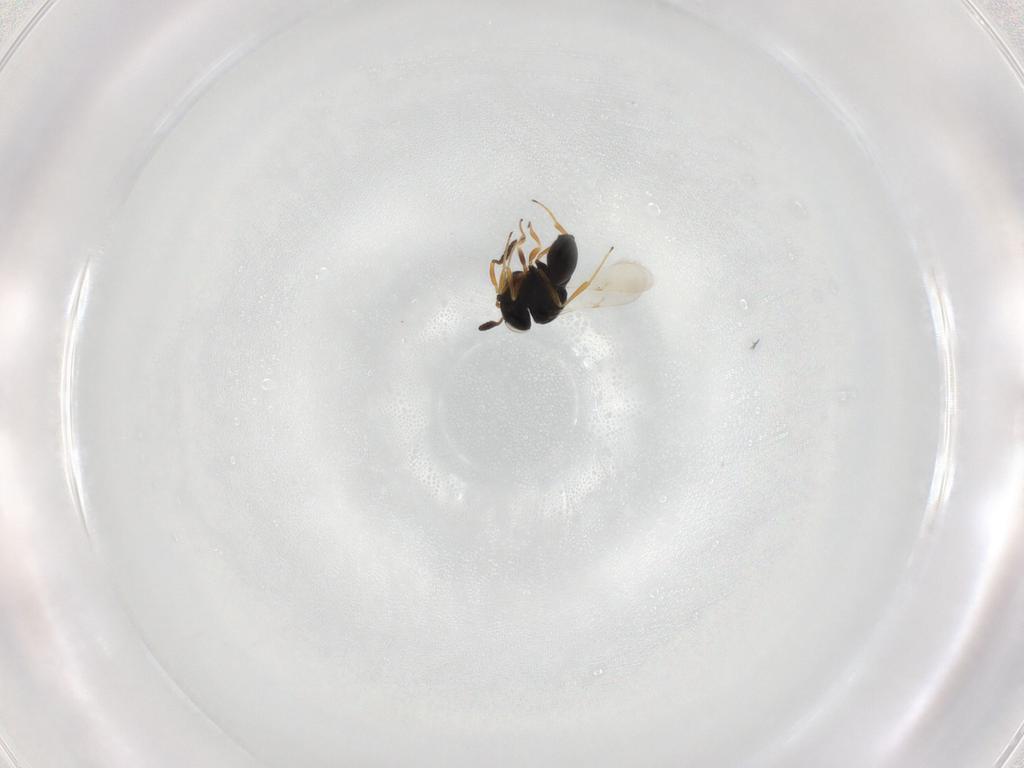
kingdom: Animalia
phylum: Arthropoda
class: Insecta
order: Hymenoptera
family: Scelionidae
